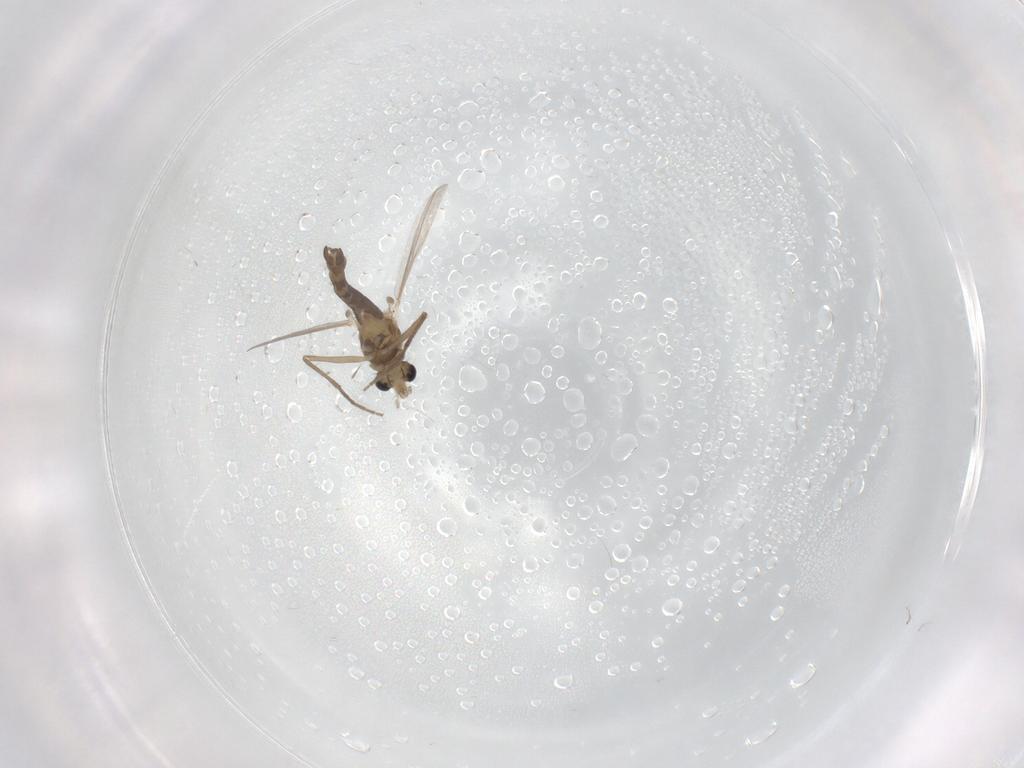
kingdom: Animalia
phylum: Arthropoda
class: Insecta
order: Diptera
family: Chironomidae
